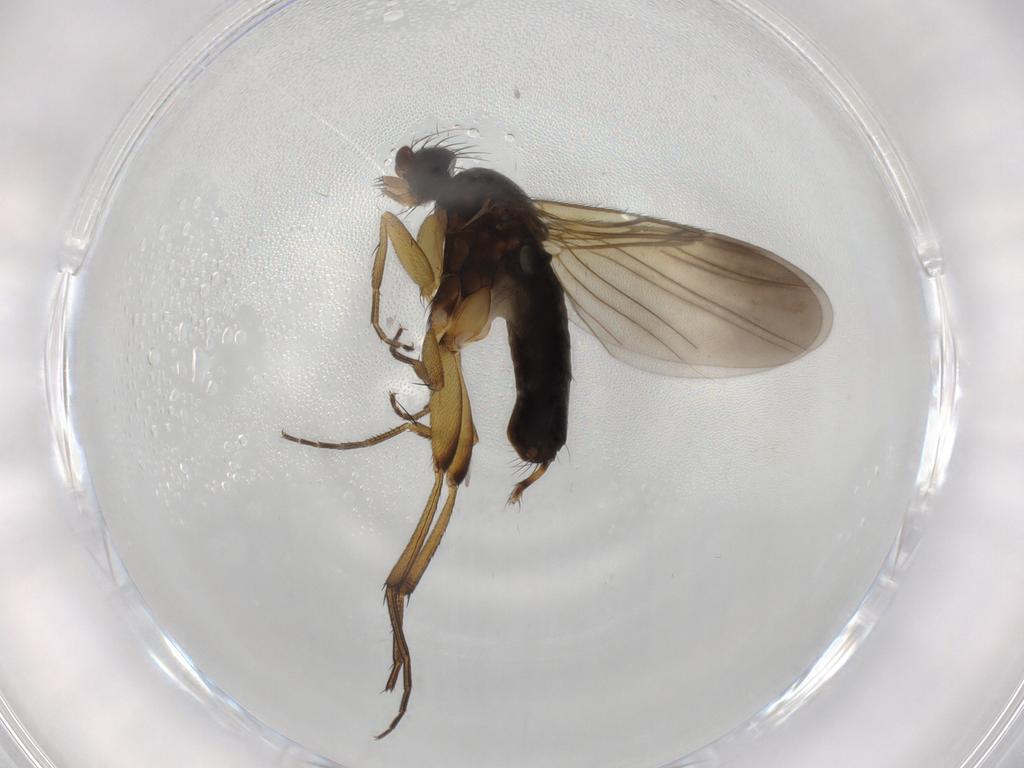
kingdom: Animalia
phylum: Arthropoda
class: Insecta
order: Diptera
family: Phoridae
